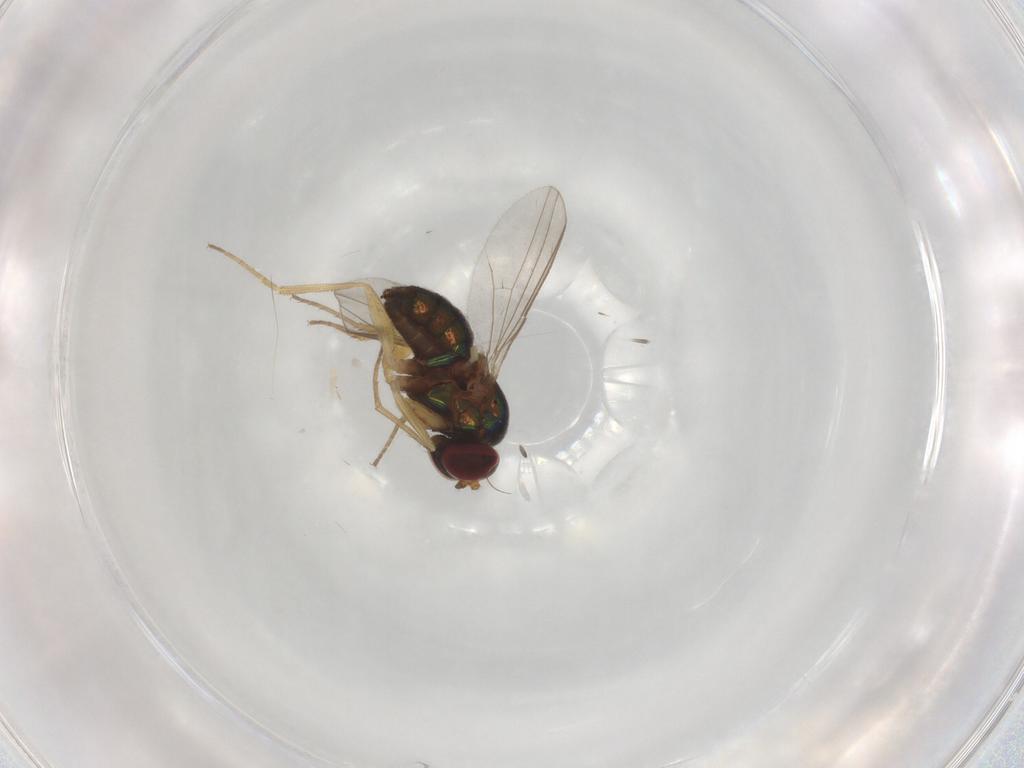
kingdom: Animalia
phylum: Arthropoda
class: Insecta
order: Diptera
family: Dolichopodidae
